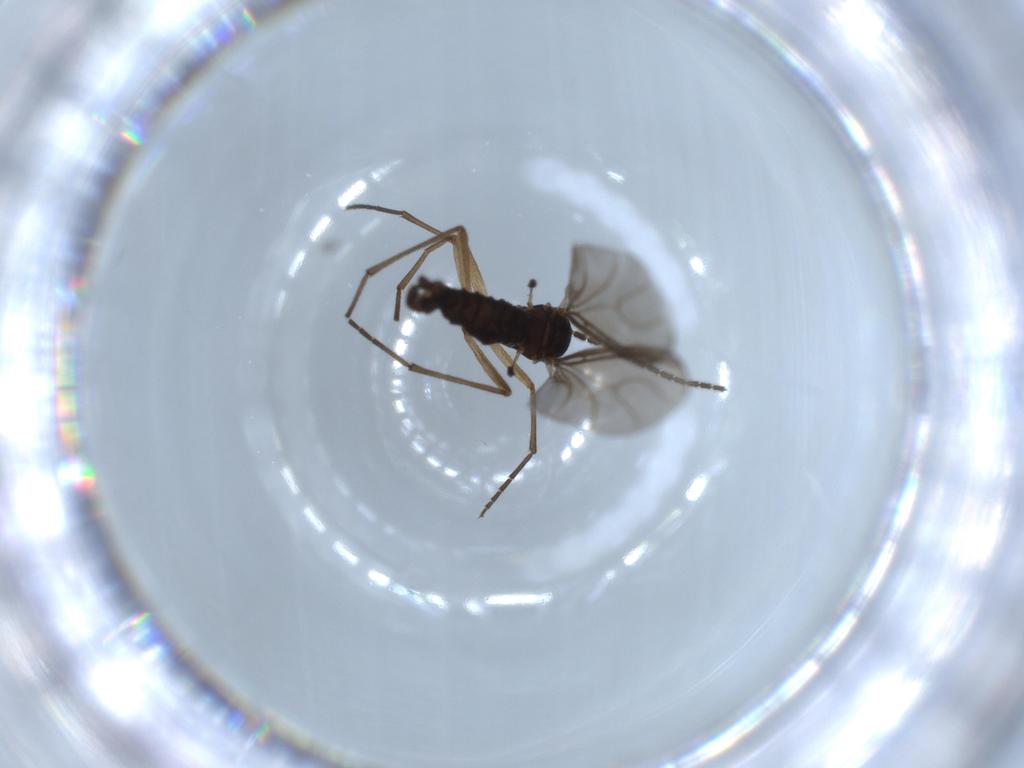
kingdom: Animalia
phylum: Arthropoda
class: Insecta
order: Diptera
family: Sciaridae
